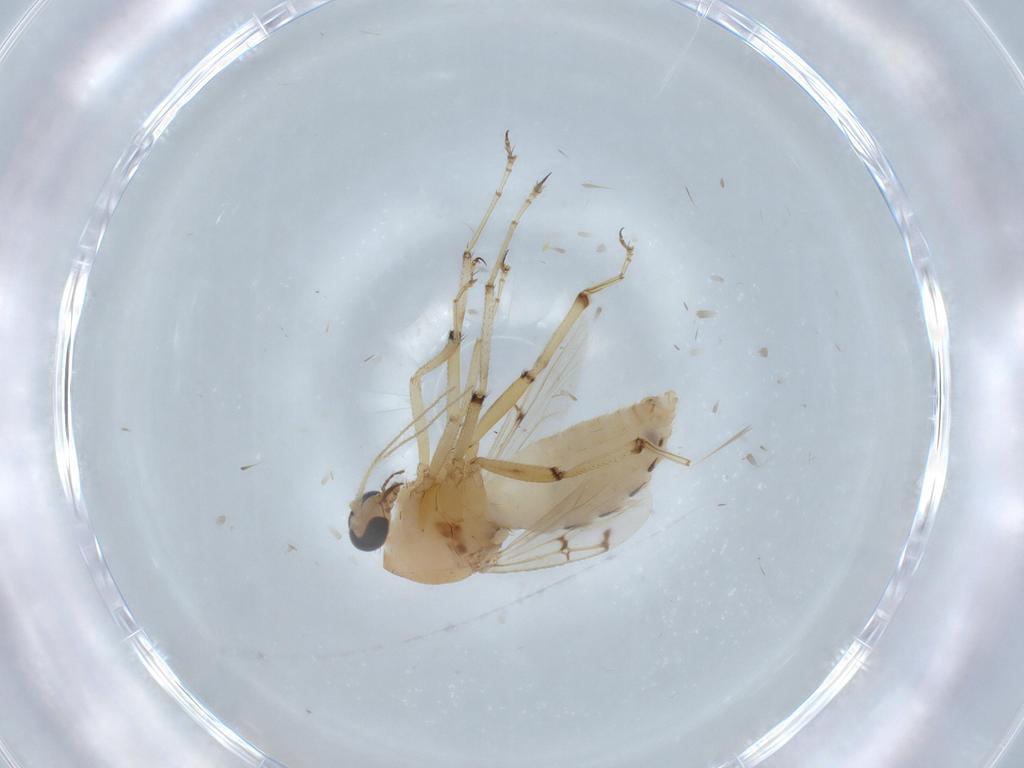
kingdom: Animalia
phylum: Arthropoda
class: Insecta
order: Diptera
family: Ceratopogonidae
